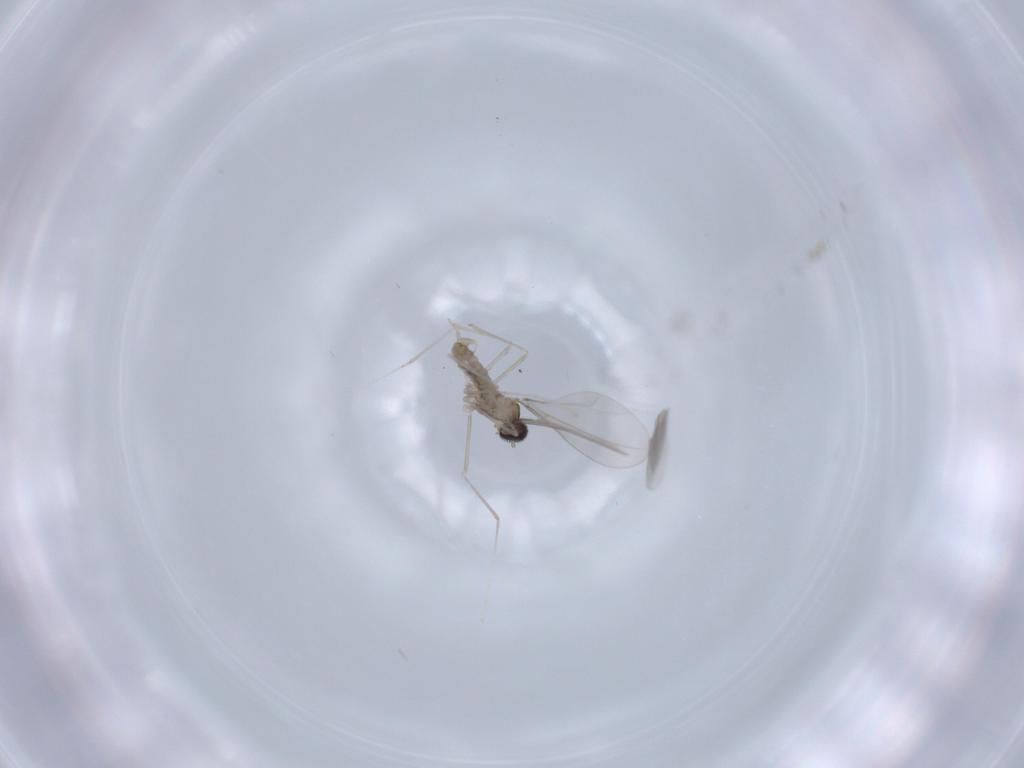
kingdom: Animalia
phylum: Arthropoda
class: Insecta
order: Diptera
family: Cecidomyiidae
